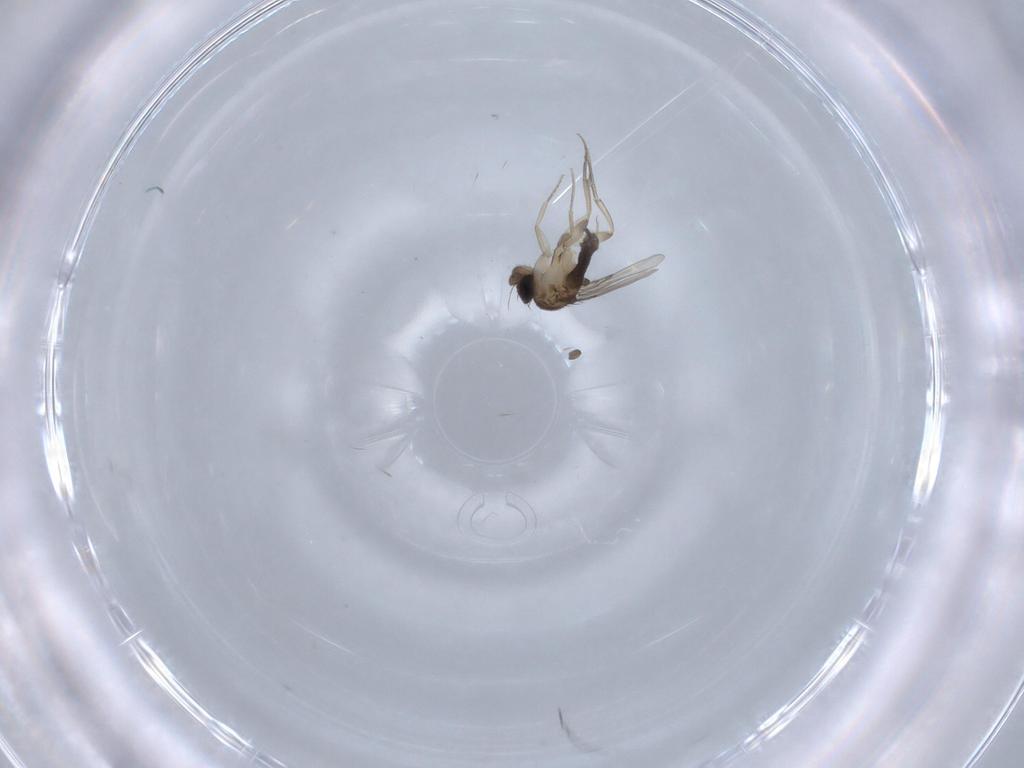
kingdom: Animalia
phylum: Arthropoda
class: Insecta
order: Diptera
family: Phoridae
